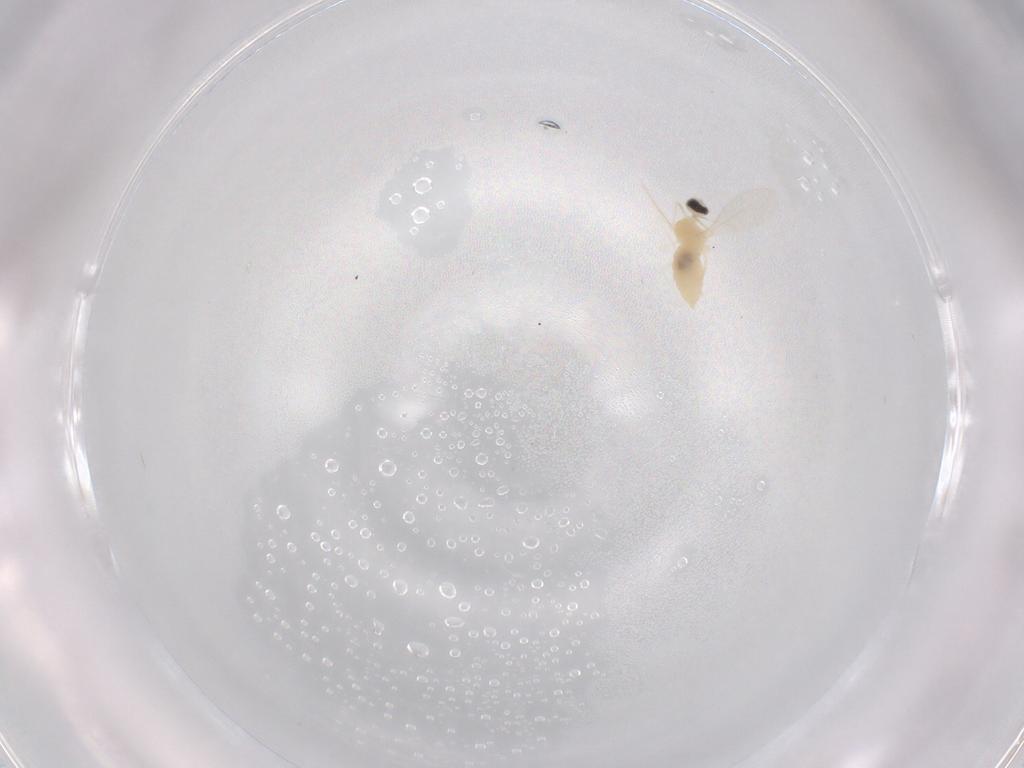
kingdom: Animalia
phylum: Arthropoda
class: Insecta
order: Diptera
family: Cecidomyiidae
